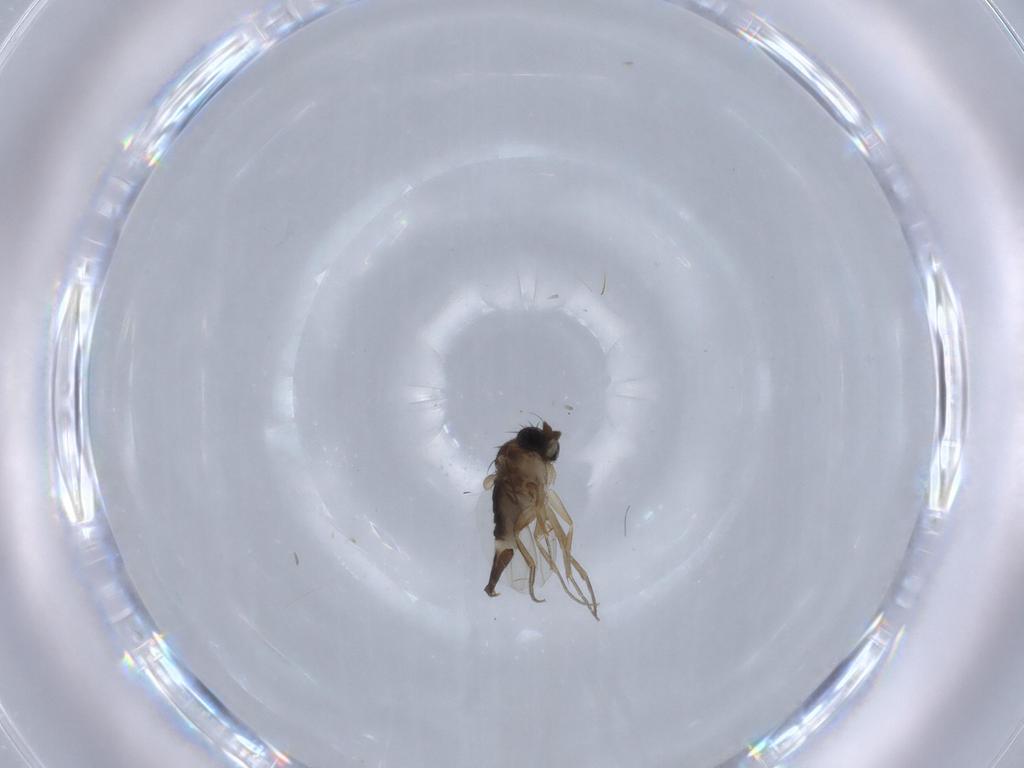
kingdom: Animalia
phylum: Arthropoda
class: Insecta
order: Diptera
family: Phoridae
